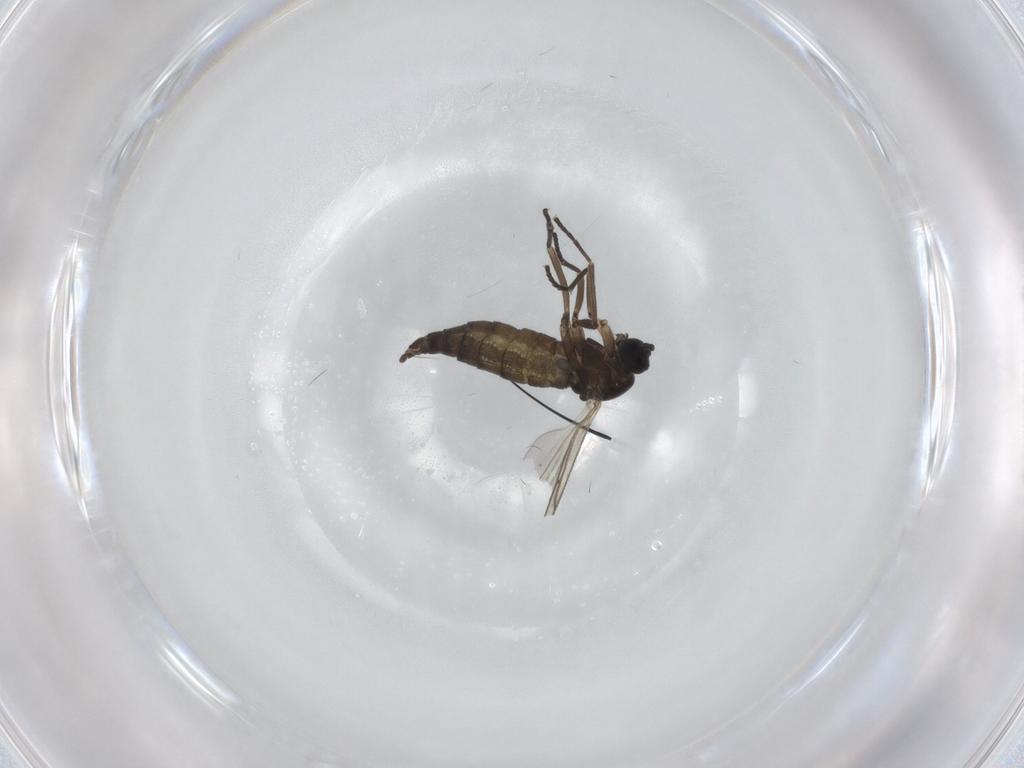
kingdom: Animalia
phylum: Arthropoda
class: Insecta
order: Diptera
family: Sciaridae
